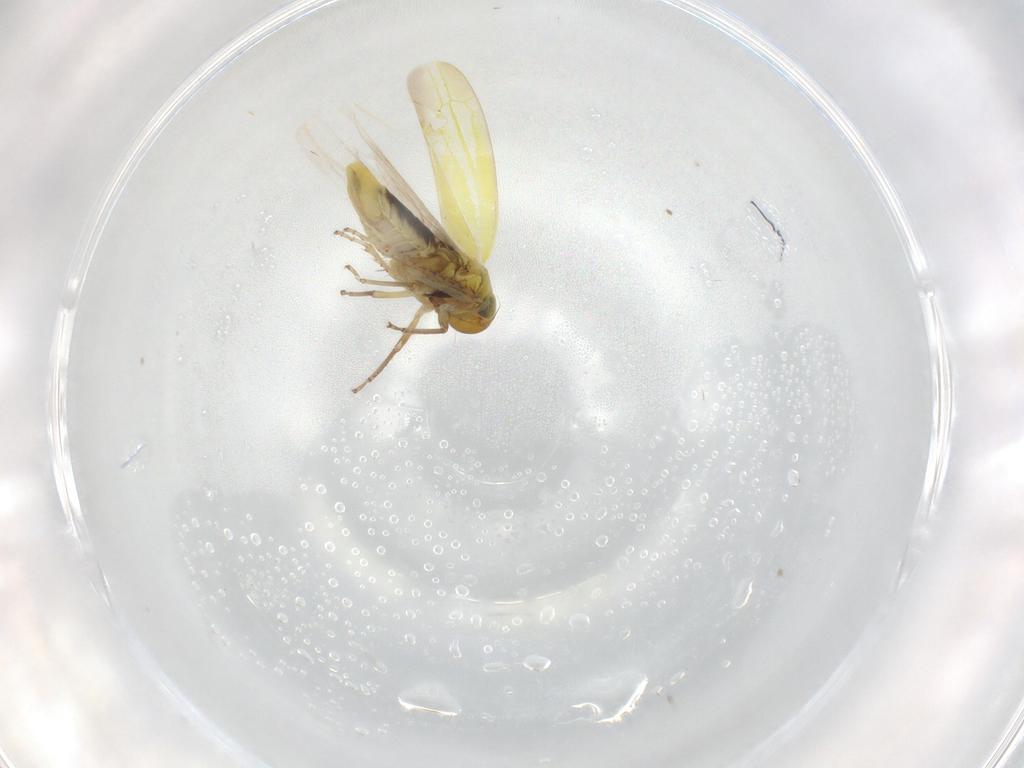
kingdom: Animalia
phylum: Arthropoda
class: Insecta
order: Hemiptera
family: Cicadellidae
